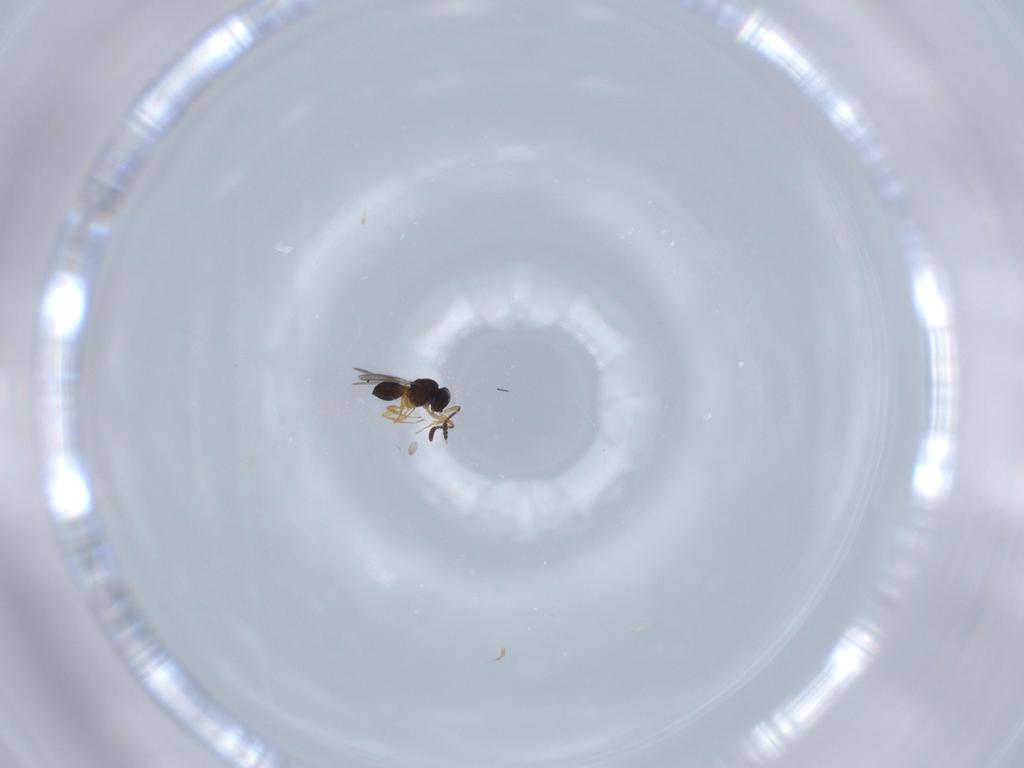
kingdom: Animalia
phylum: Arthropoda
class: Insecta
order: Hymenoptera
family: Scelionidae
